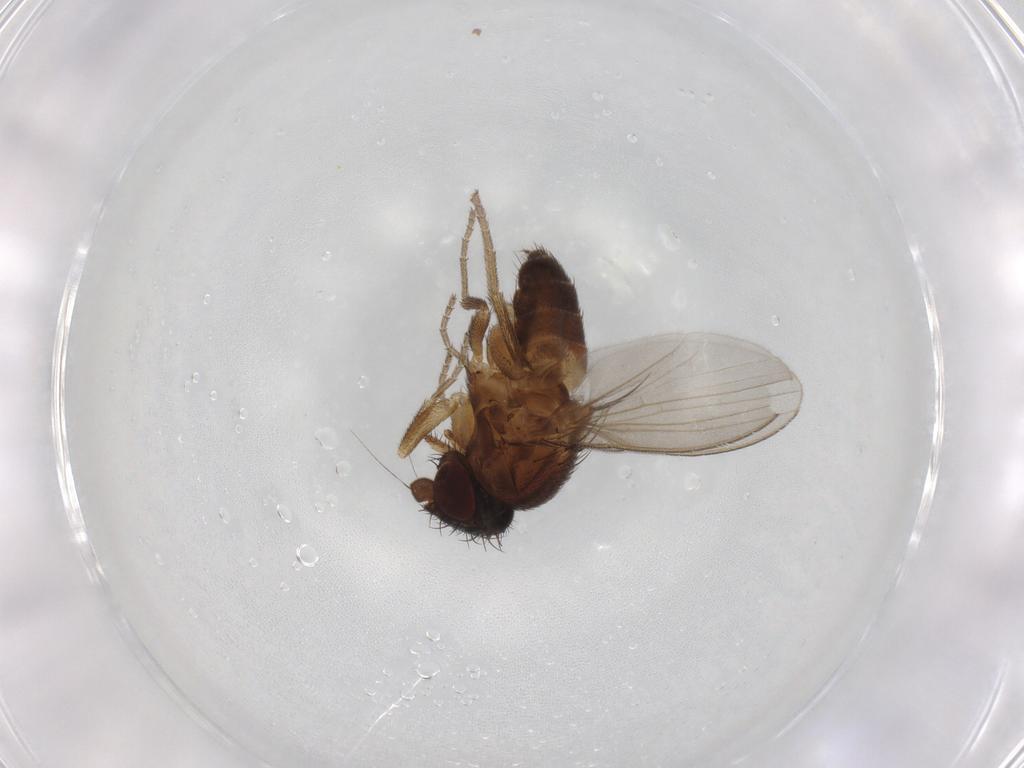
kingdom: Animalia
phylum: Arthropoda
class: Insecta
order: Diptera
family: Milichiidae
